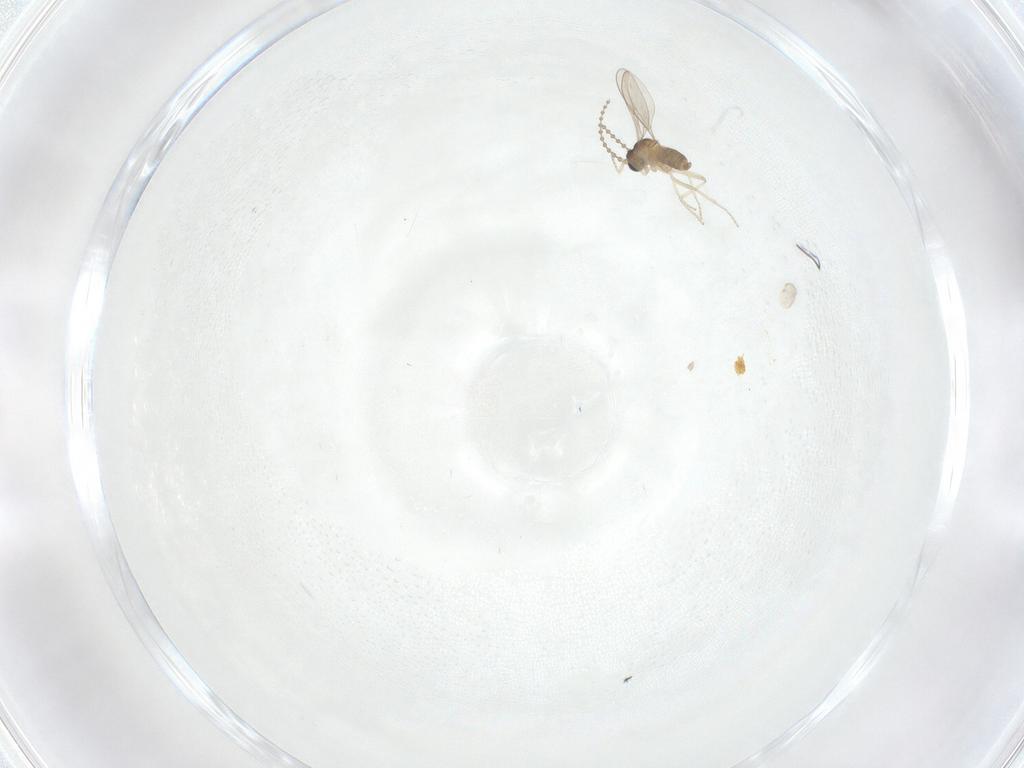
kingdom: Animalia
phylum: Arthropoda
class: Insecta
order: Diptera
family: Cecidomyiidae
